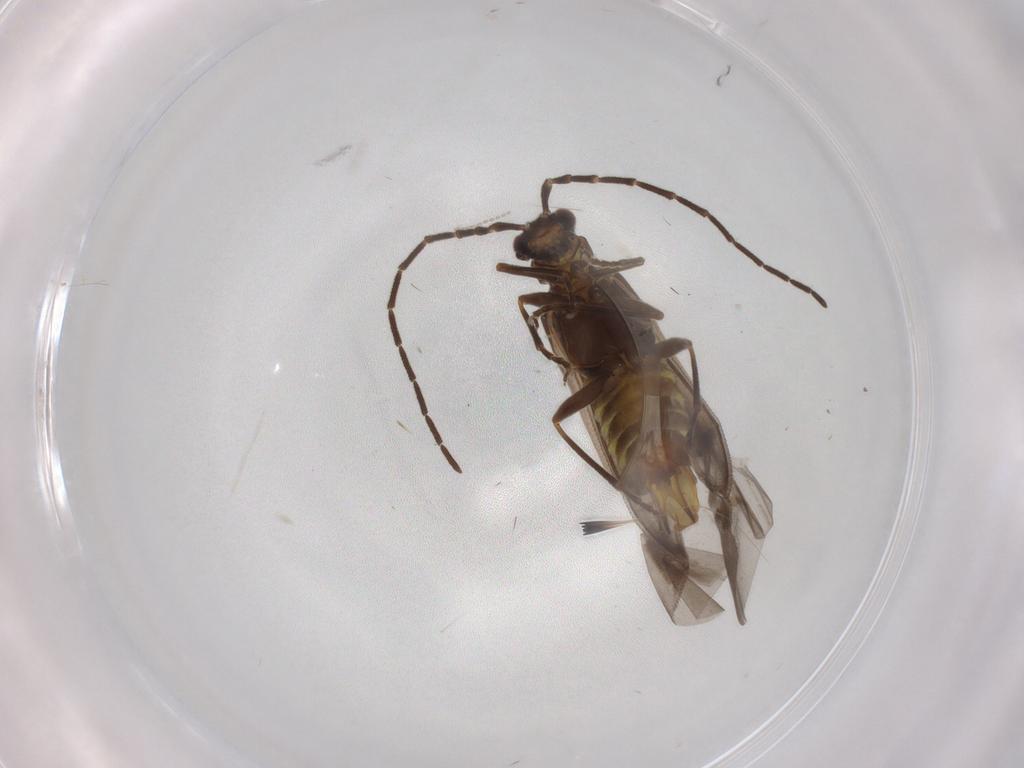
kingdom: Animalia
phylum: Arthropoda
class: Insecta
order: Coleoptera
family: Cantharidae
